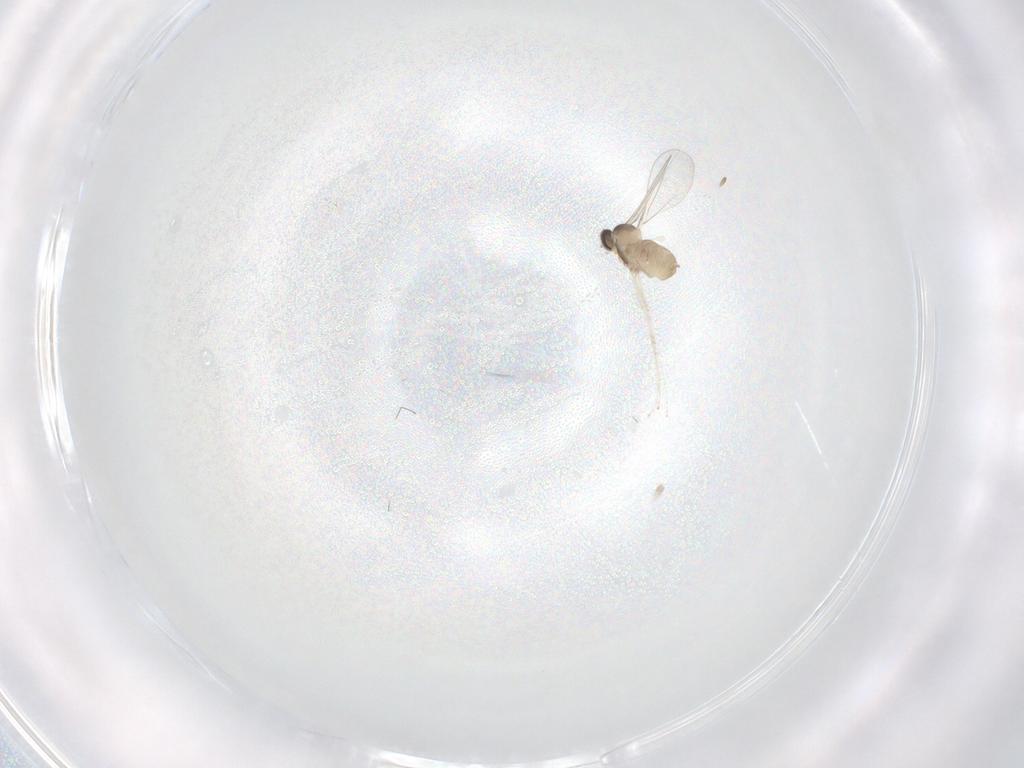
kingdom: Animalia
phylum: Arthropoda
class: Insecta
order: Diptera
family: Cecidomyiidae
